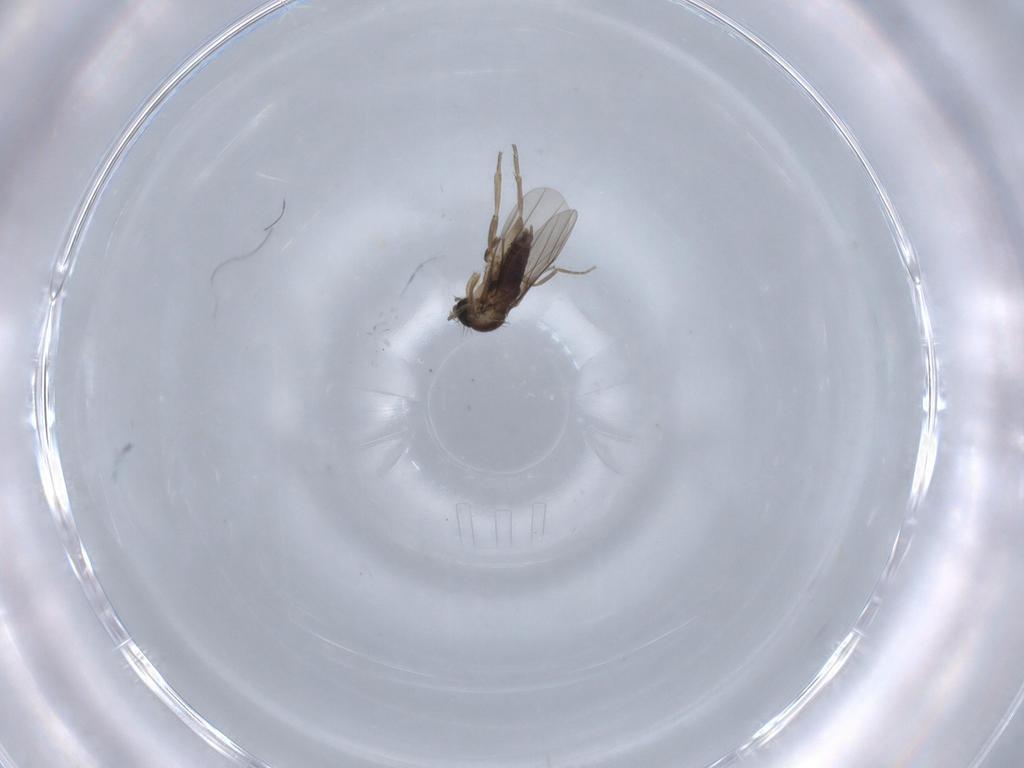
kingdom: Animalia
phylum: Arthropoda
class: Insecta
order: Diptera
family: Phoridae
